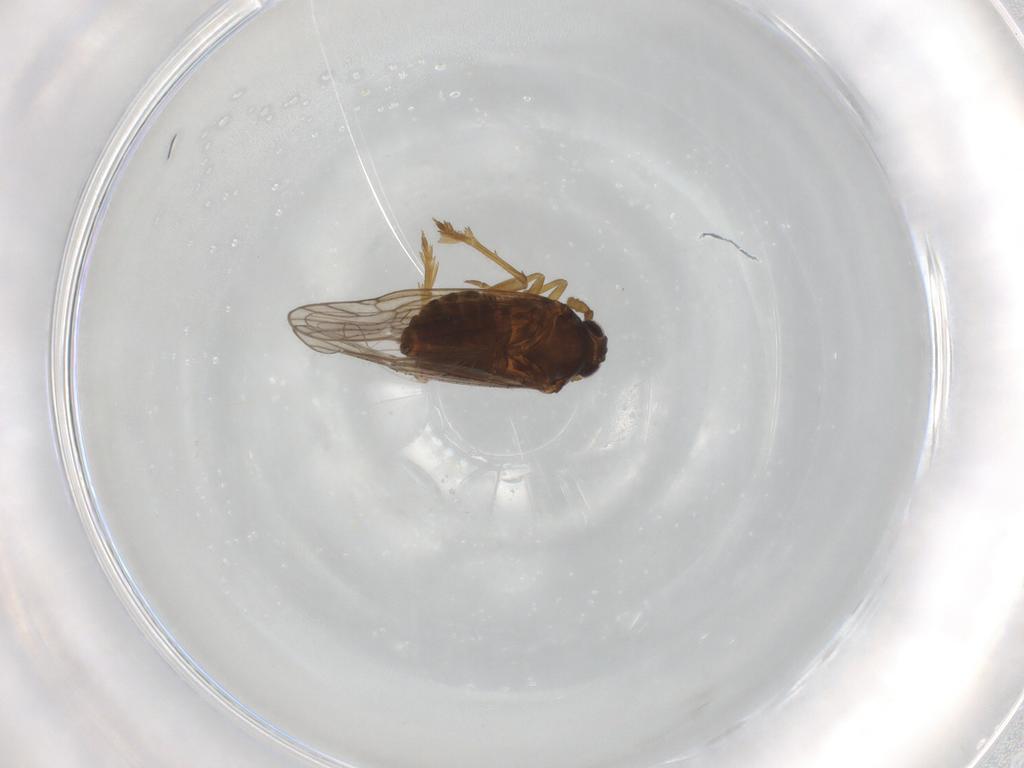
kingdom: Animalia
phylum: Arthropoda
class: Insecta
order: Hemiptera
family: Delphacidae
